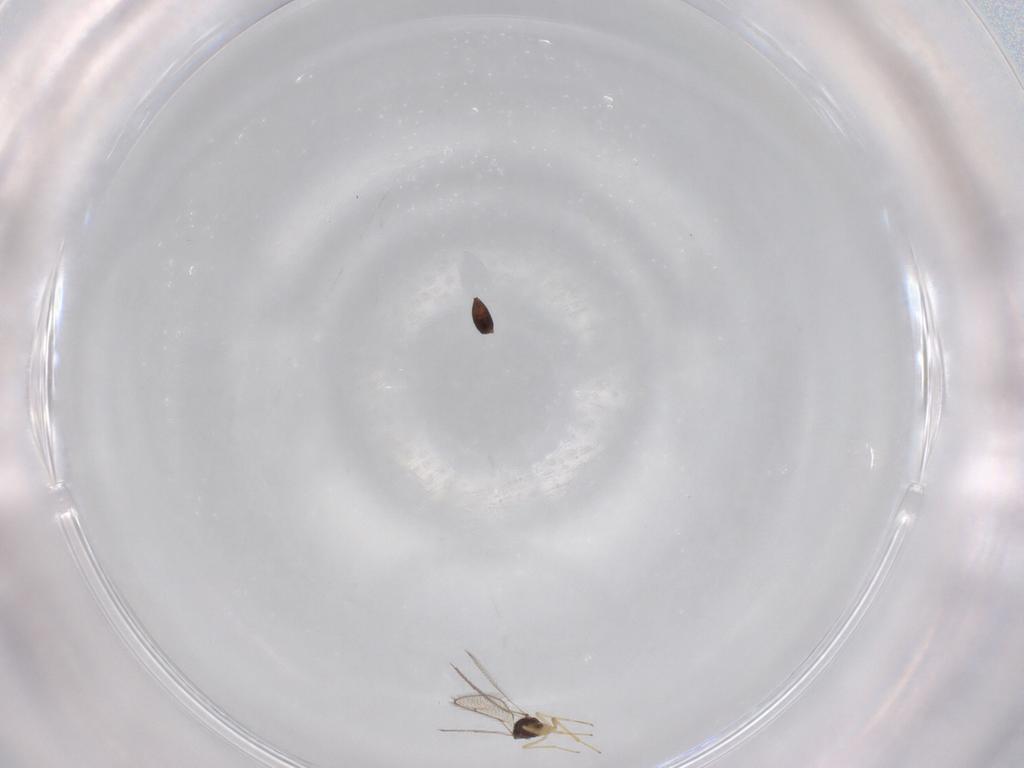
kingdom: Animalia
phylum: Arthropoda
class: Insecta
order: Hymenoptera
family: Pteromalidae
